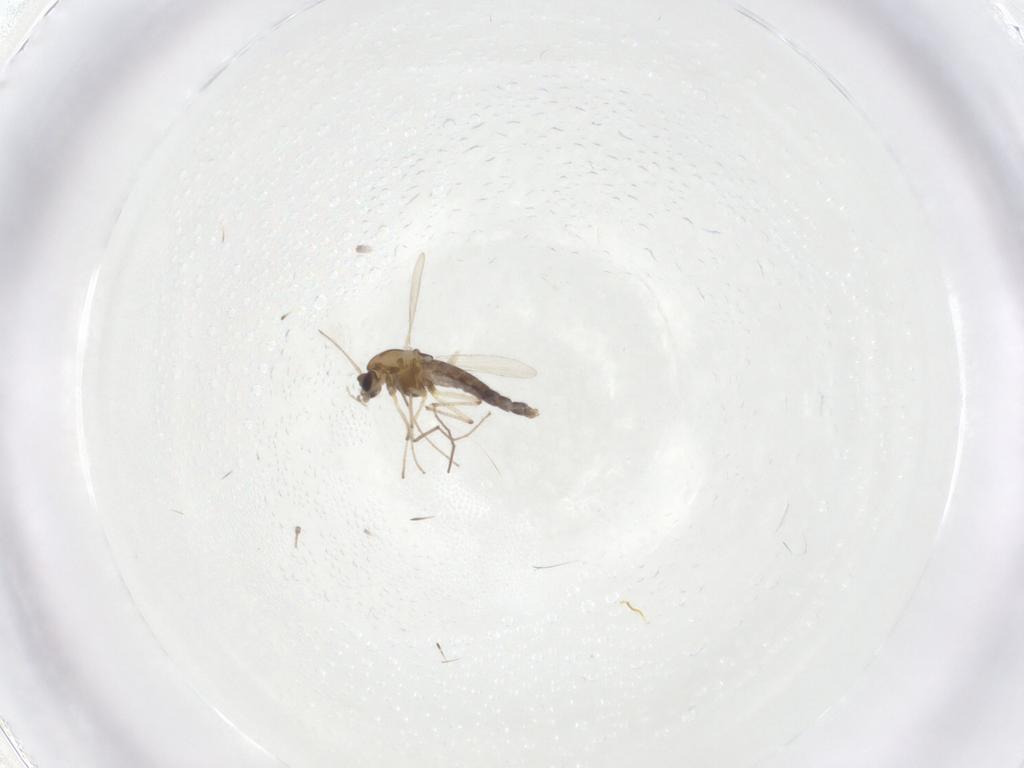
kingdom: Animalia
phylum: Arthropoda
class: Insecta
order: Diptera
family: Chironomidae
